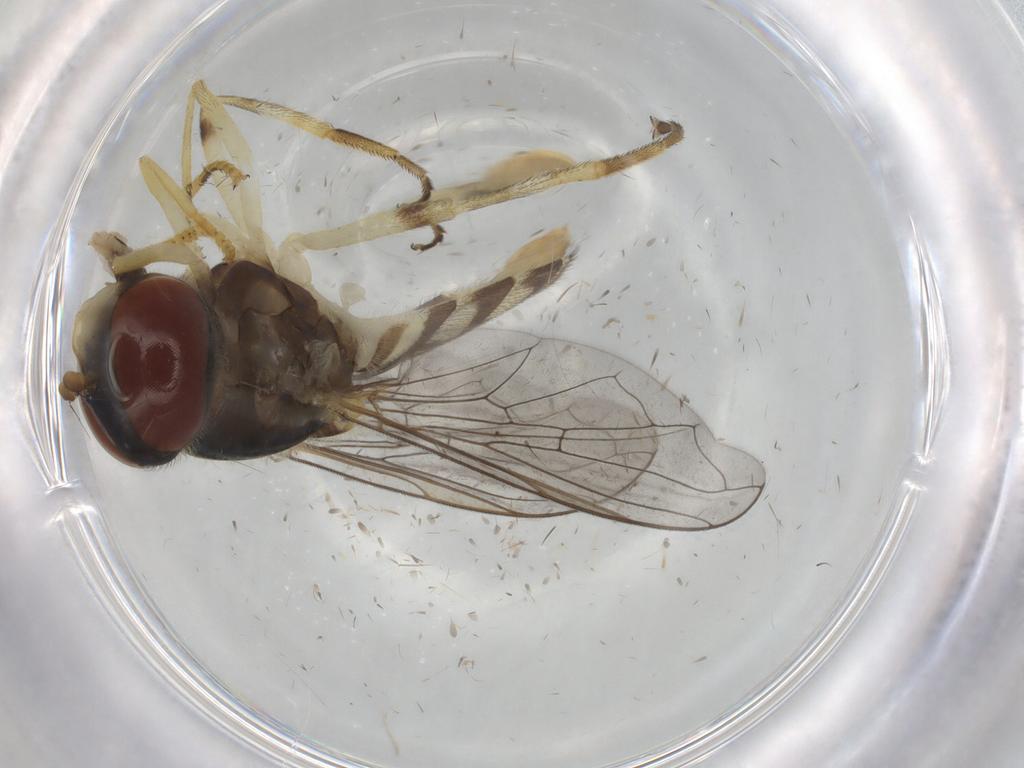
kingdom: Animalia
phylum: Arthropoda
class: Insecta
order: Diptera
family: Syrphidae
